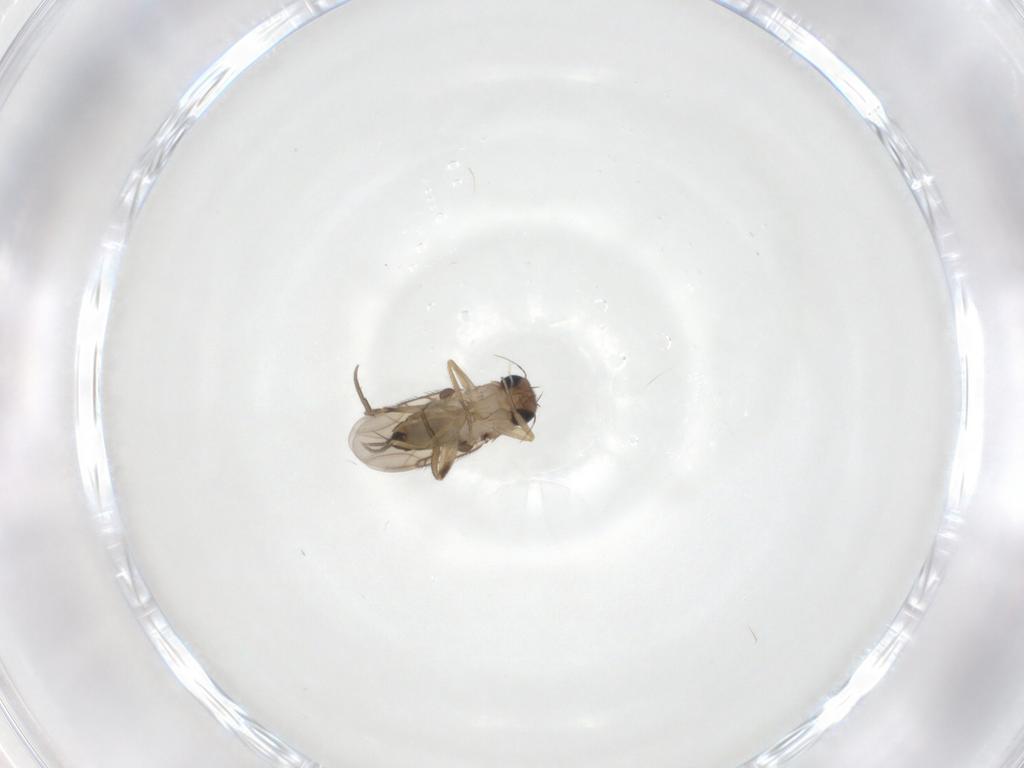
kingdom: Animalia
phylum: Arthropoda
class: Insecta
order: Diptera
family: Phoridae
